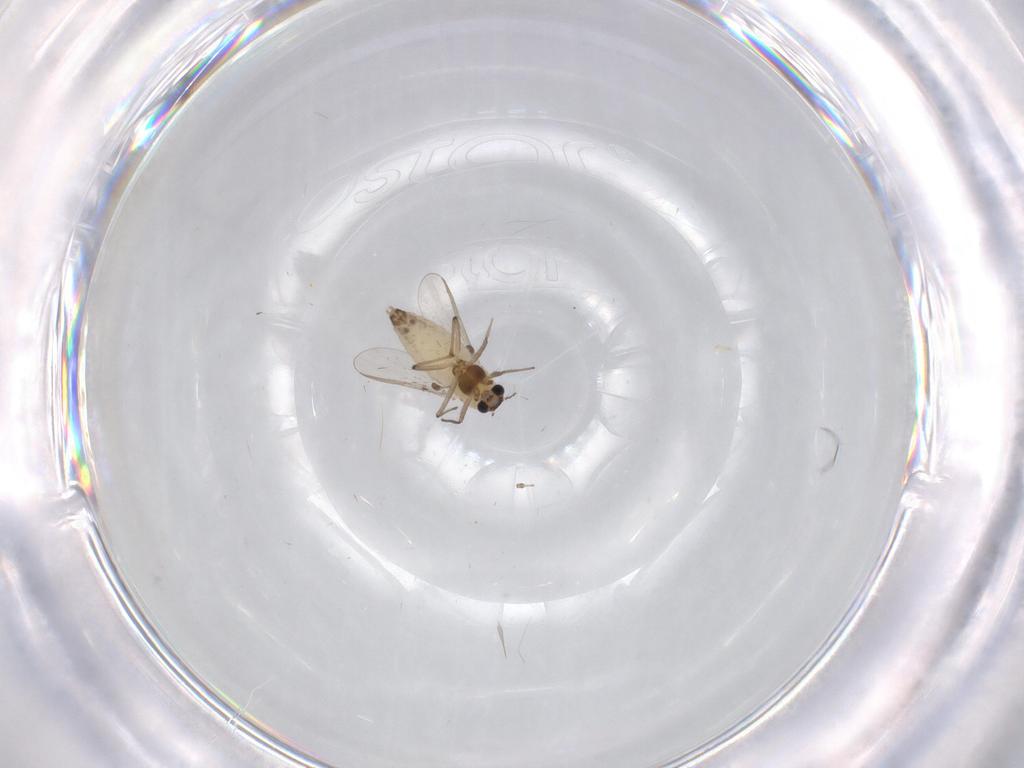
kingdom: Animalia
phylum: Arthropoda
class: Insecta
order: Diptera
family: Chironomidae
